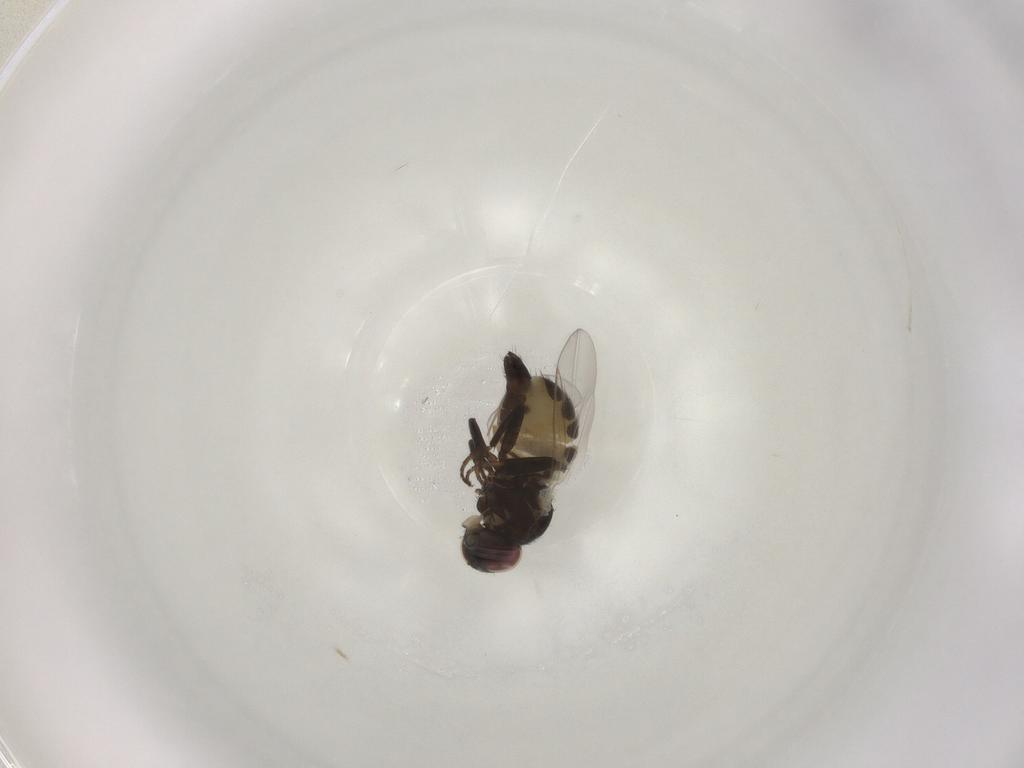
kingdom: Animalia
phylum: Arthropoda
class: Insecta
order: Diptera
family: Agromyzidae
